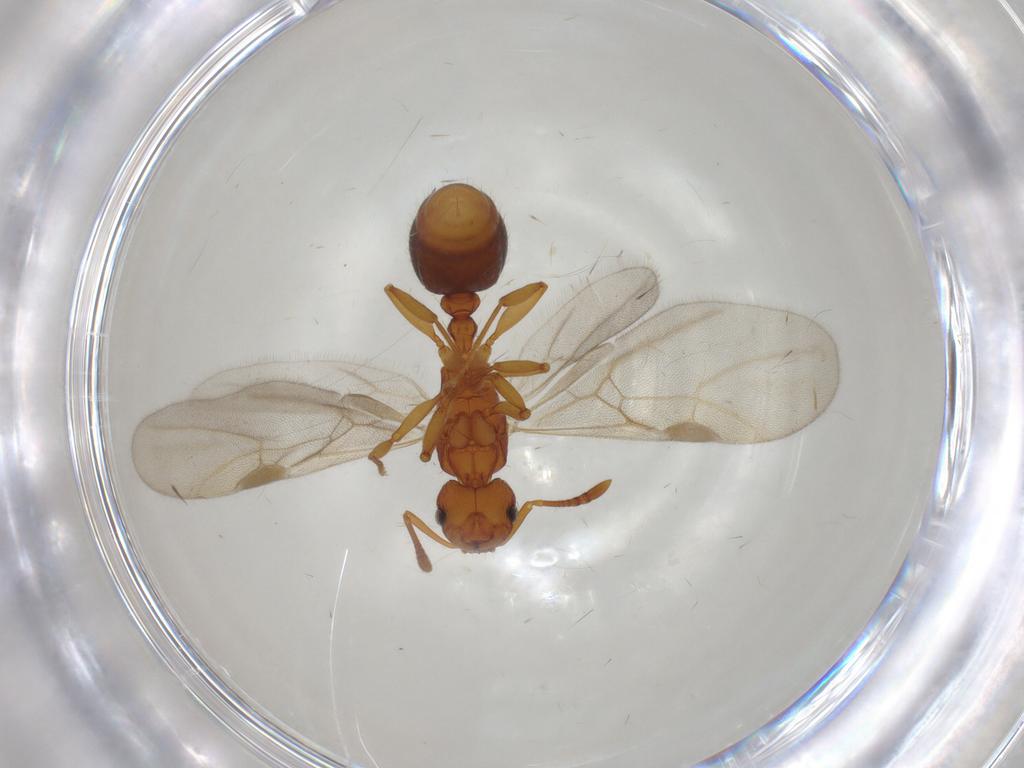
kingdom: Animalia
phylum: Arthropoda
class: Insecta
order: Hymenoptera
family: Formicidae
